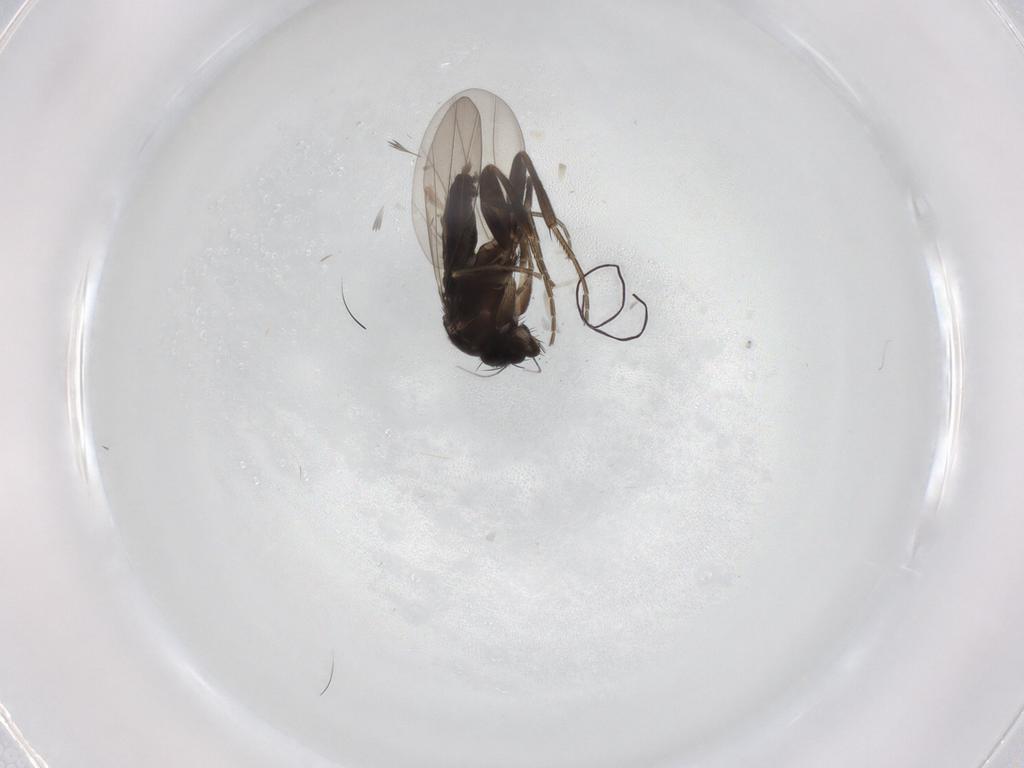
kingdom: Animalia
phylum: Arthropoda
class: Insecta
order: Diptera
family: Phoridae
